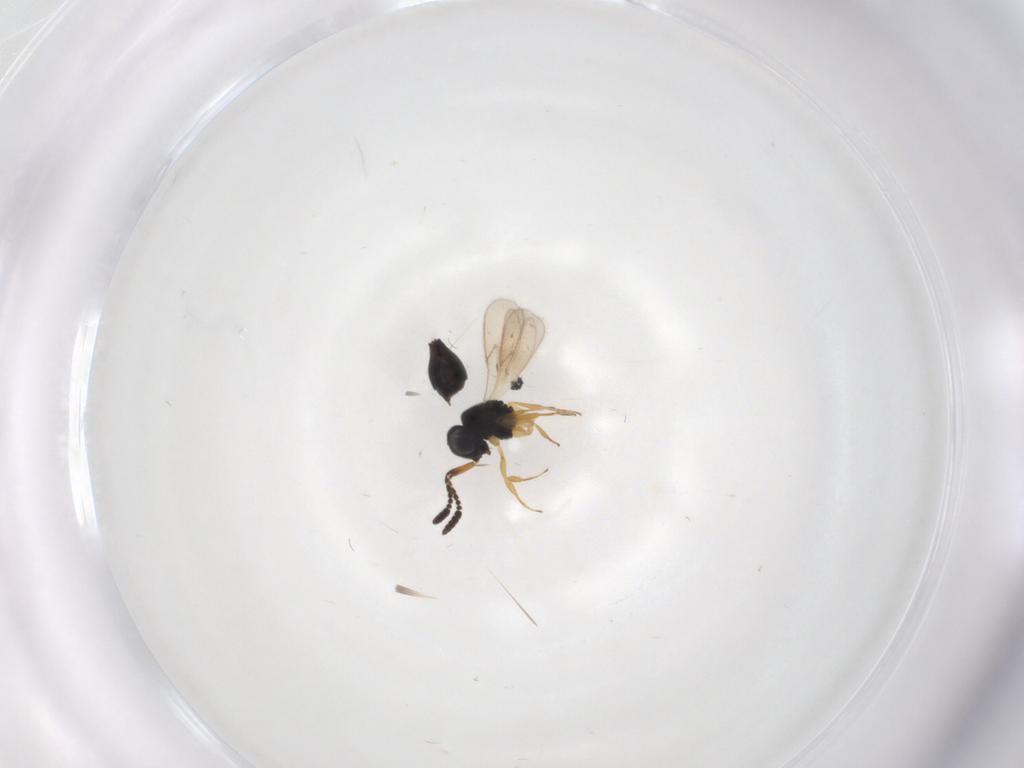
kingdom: Animalia
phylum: Arthropoda
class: Insecta
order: Hymenoptera
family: Scelionidae
